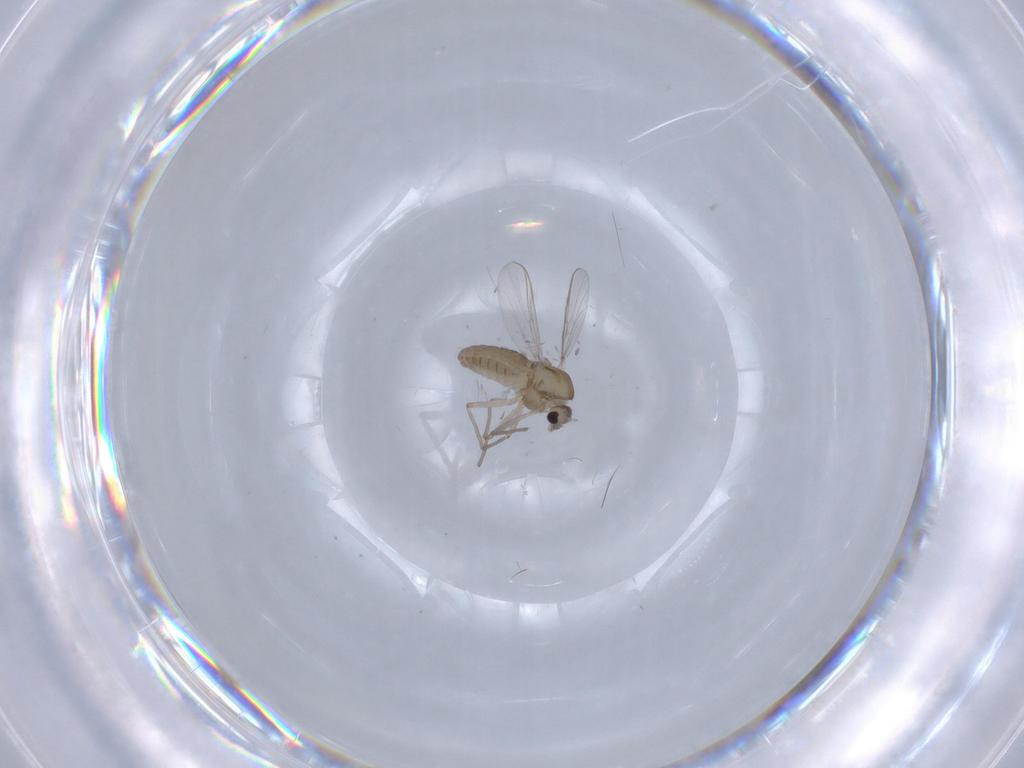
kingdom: Animalia
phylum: Arthropoda
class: Insecta
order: Diptera
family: Chironomidae
